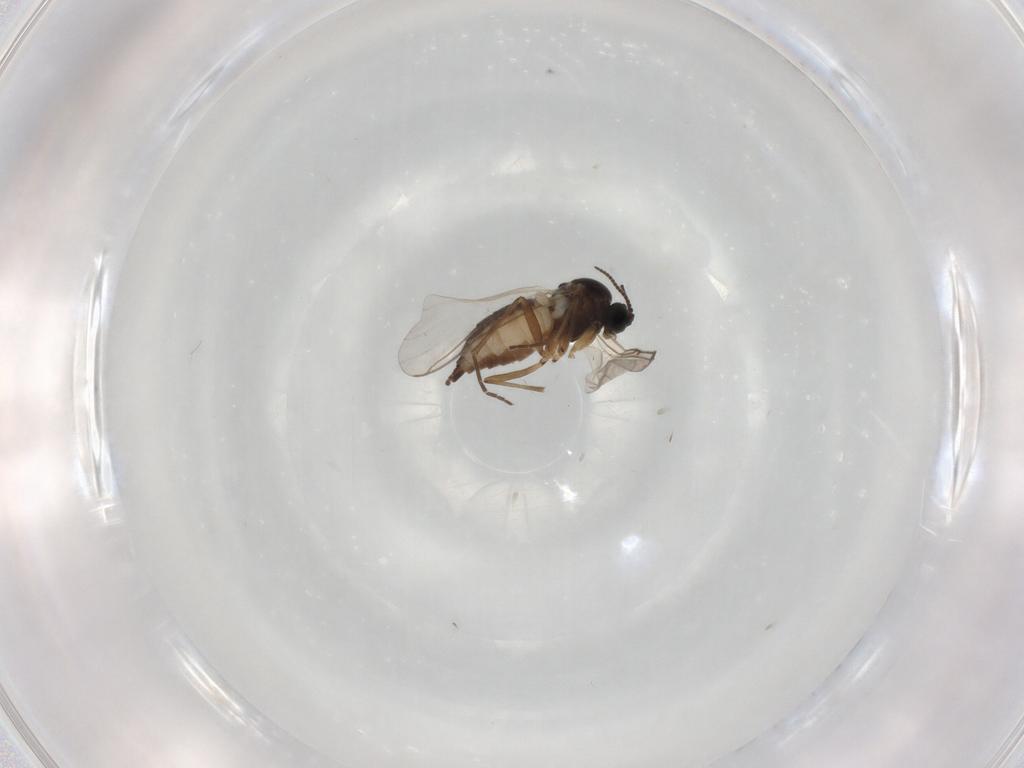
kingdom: Animalia
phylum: Arthropoda
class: Insecta
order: Diptera
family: Sciaridae
